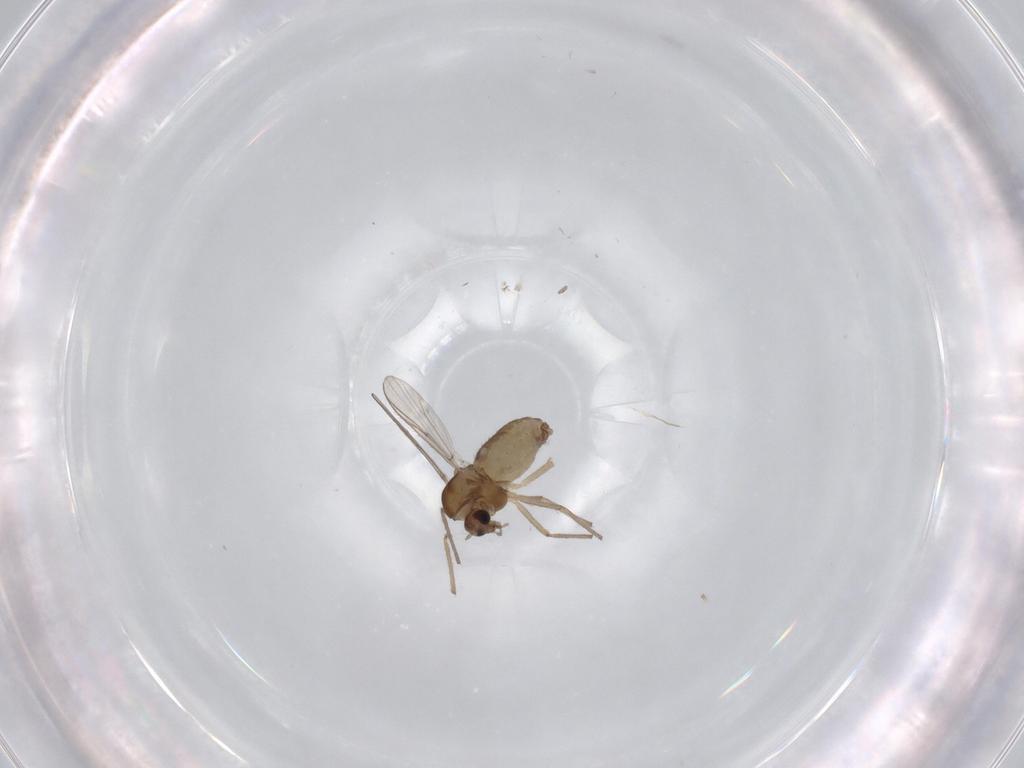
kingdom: Animalia
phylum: Arthropoda
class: Insecta
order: Diptera
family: Chironomidae
